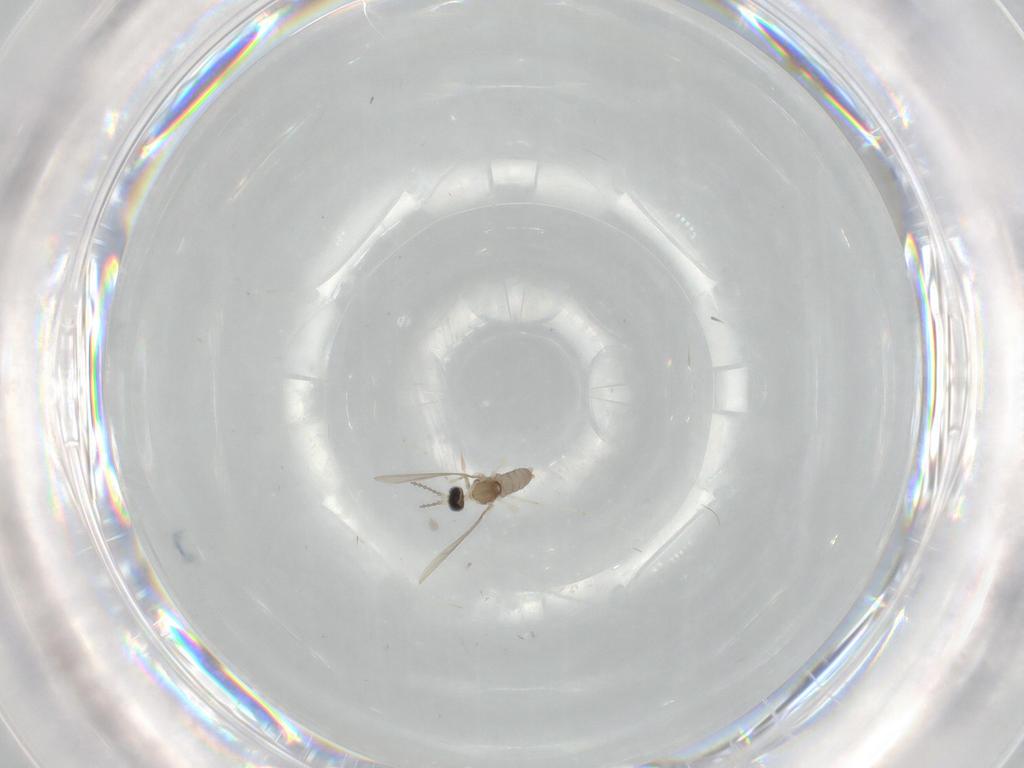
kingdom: Animalia
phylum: Arthropoda
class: Insecta
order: Diptera
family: Cecidomyiidae
